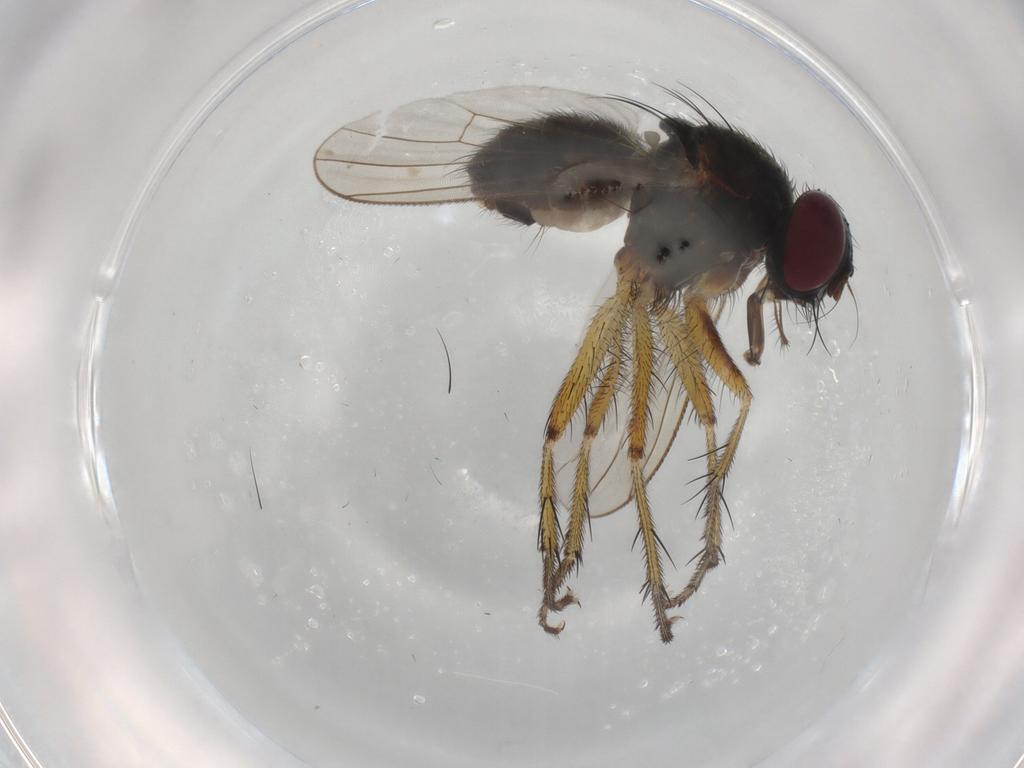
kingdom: Animalia
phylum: Arthropoda
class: Insecta
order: Diptera
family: Muscidae
